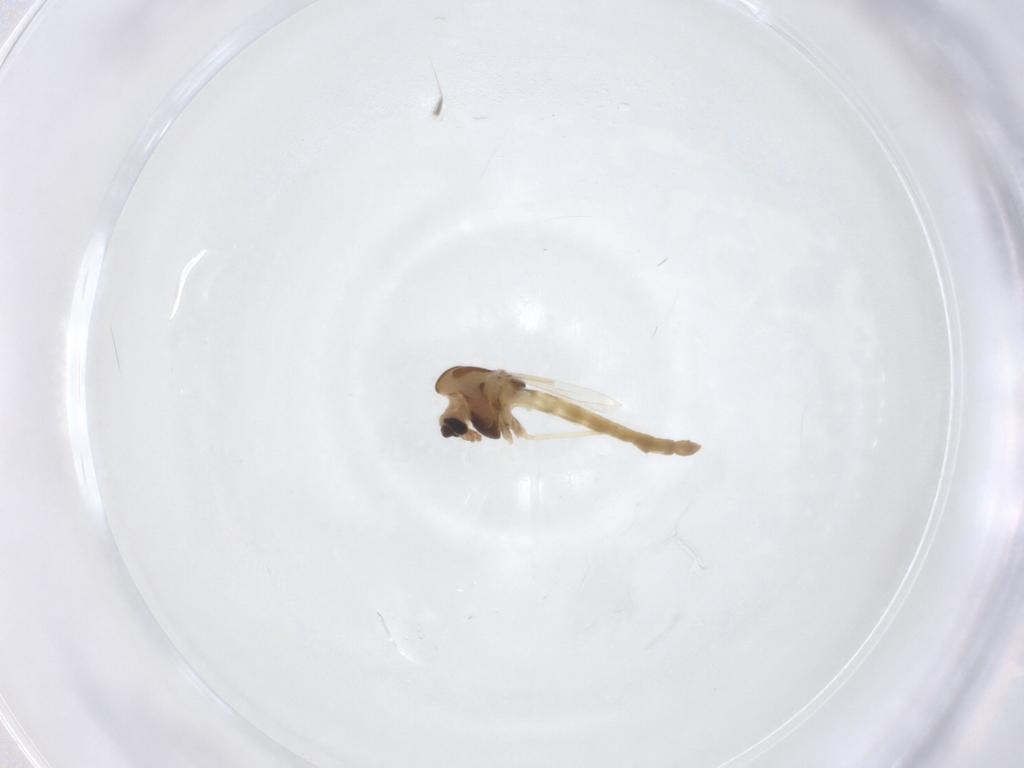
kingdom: Animalia
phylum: Arthropoda
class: Insecta
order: Diptera
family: Chironomidae
